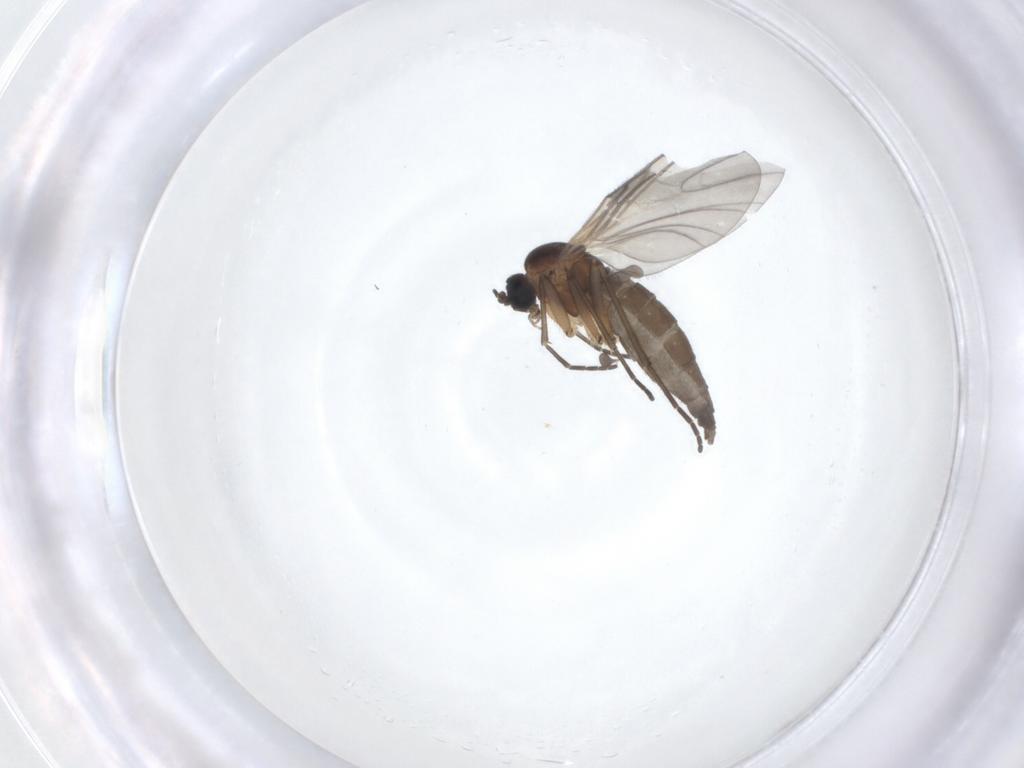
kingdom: Animalia
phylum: Arthropoda
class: Insecta
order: Diptera
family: Sciaridae
